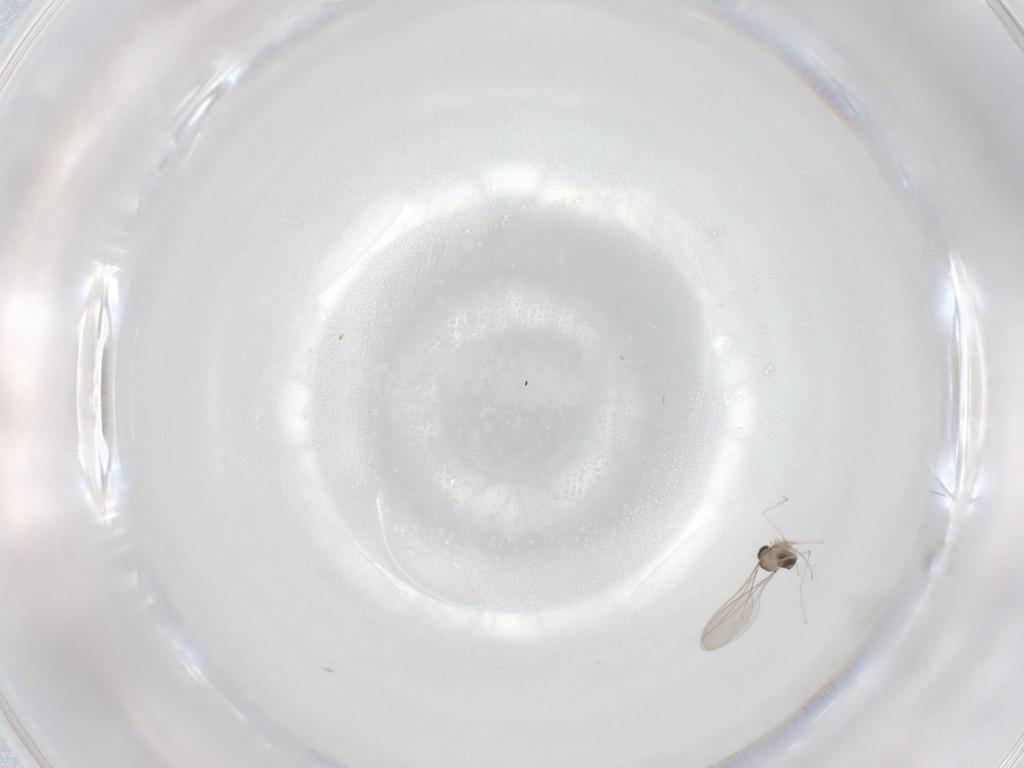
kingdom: Animalia
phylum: Arthropoda
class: Insecta
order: Diptera
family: Cecidomyiidae
